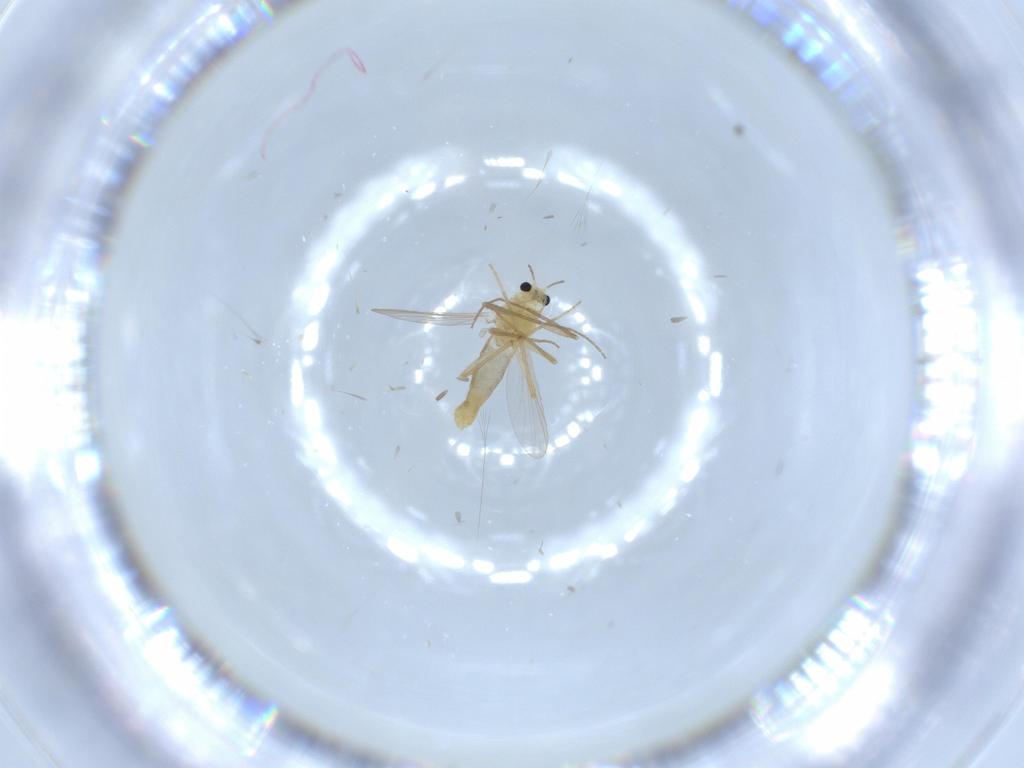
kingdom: Animalia
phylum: Arthropoda
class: Insecta
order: Diptera
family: Chironomidae
